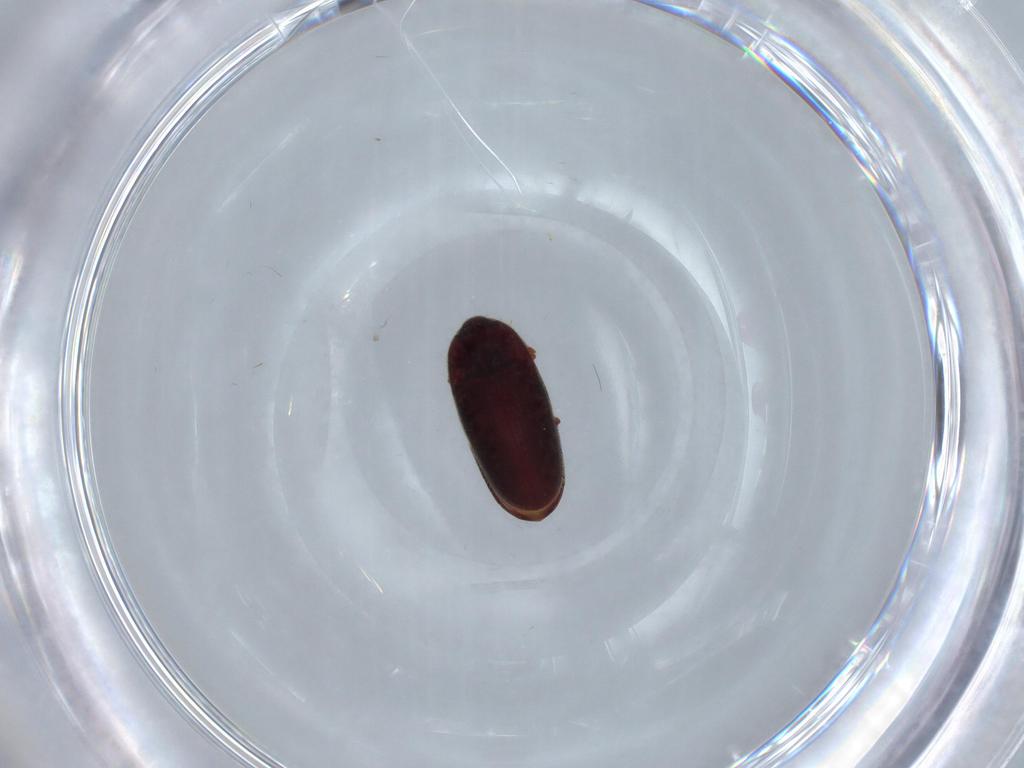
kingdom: Animalia
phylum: Arthropoda
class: Insecta
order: Coleoptera
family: Throscidae
